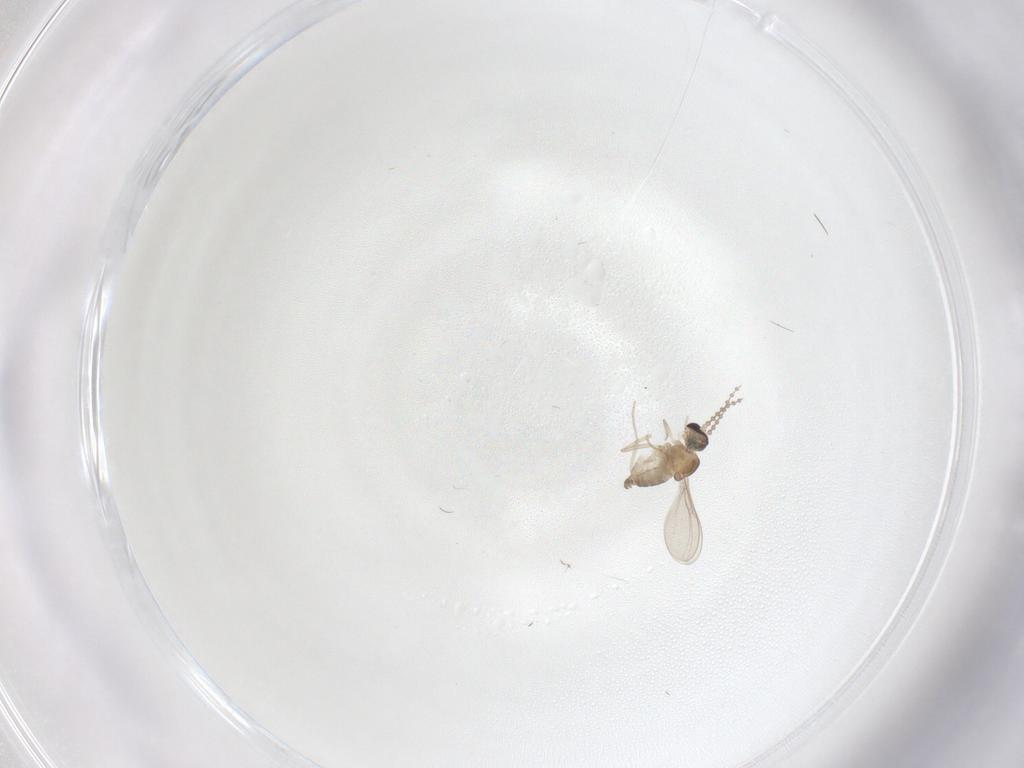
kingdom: Animalia
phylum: Arthropoda
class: Insecta
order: Diptera
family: Cecidomyiidae
